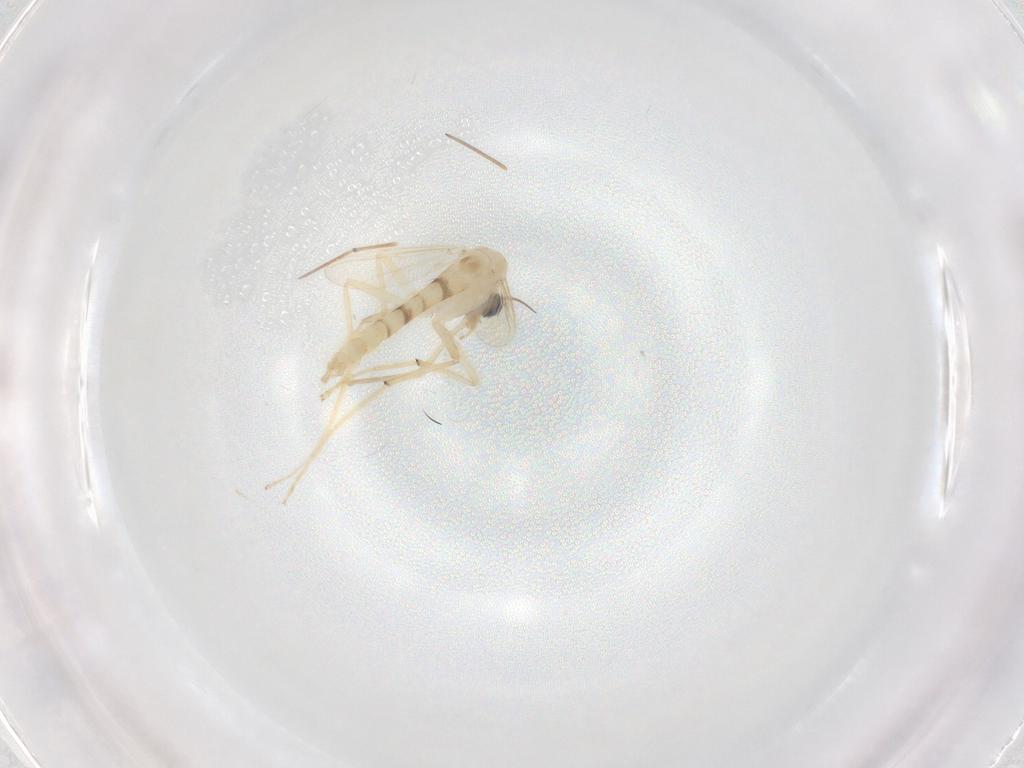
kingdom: Animalia
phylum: Arthropoda
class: Insecta
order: Diptera
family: Chironomidae
